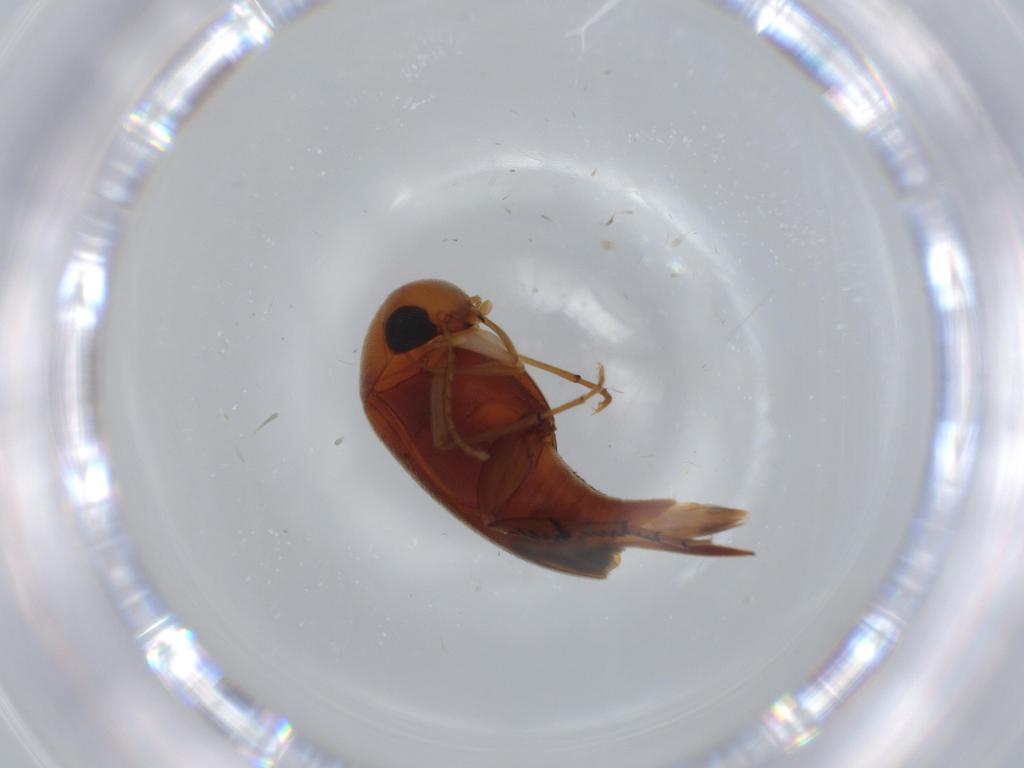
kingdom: Animalia
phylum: Arthropoda
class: Insecta
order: Coleoptera
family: Chrysomelidae
